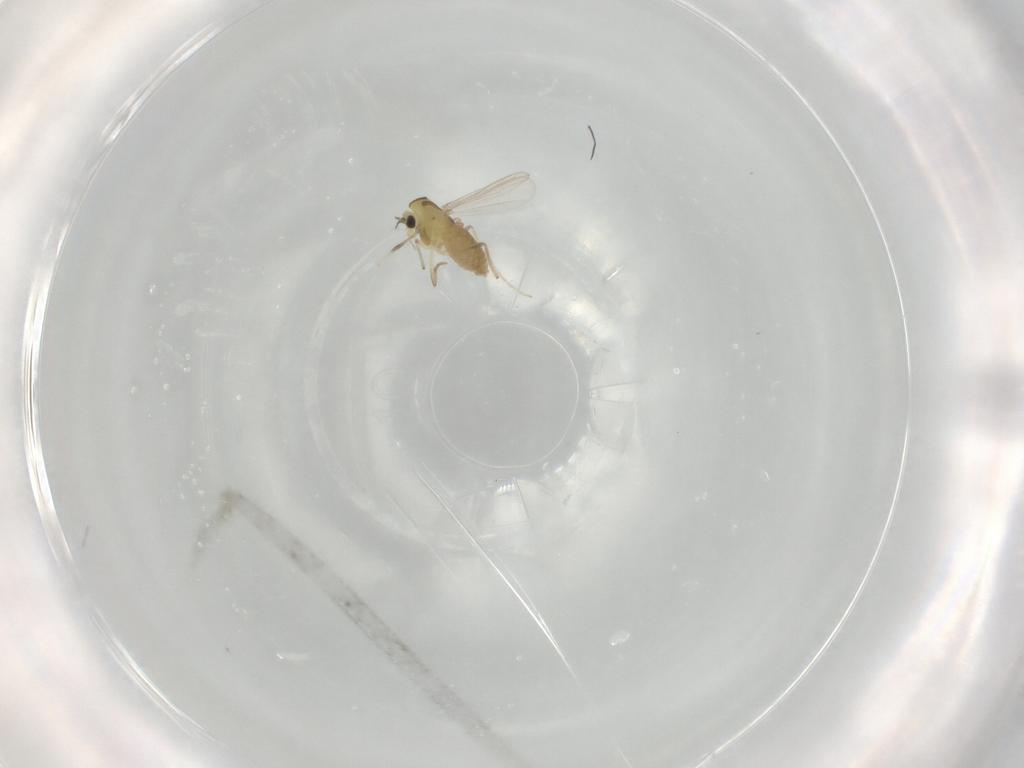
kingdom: Animalia
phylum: Arthropoda
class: Insecta
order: Diptera
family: Chironomidae
